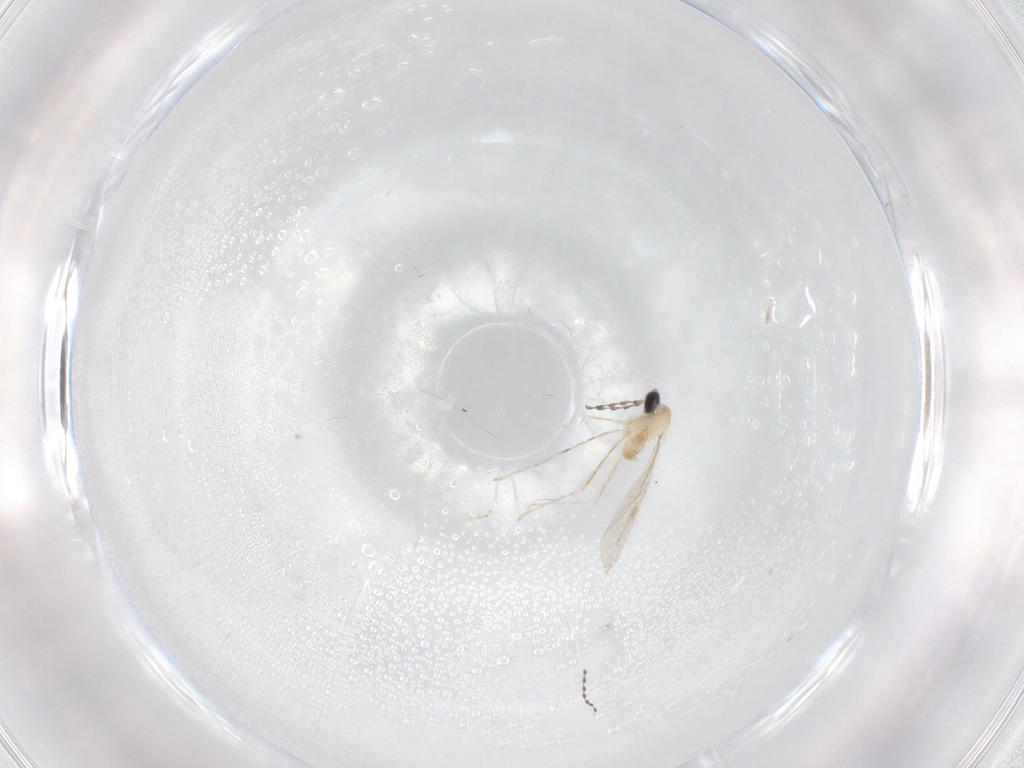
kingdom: Animalia
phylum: Arthropoda
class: Insecta
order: Diptera
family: Cecidomyiidae
